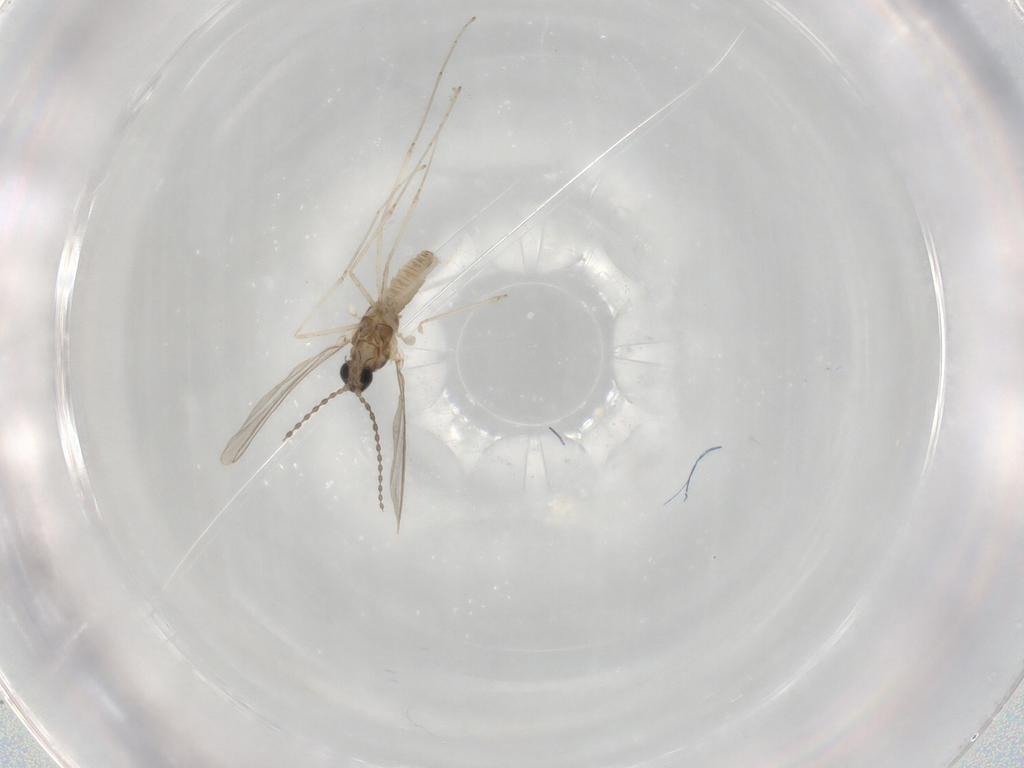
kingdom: Animalia
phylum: Arthropoda
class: Insecta
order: Diptera
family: Cecidomyiidae
